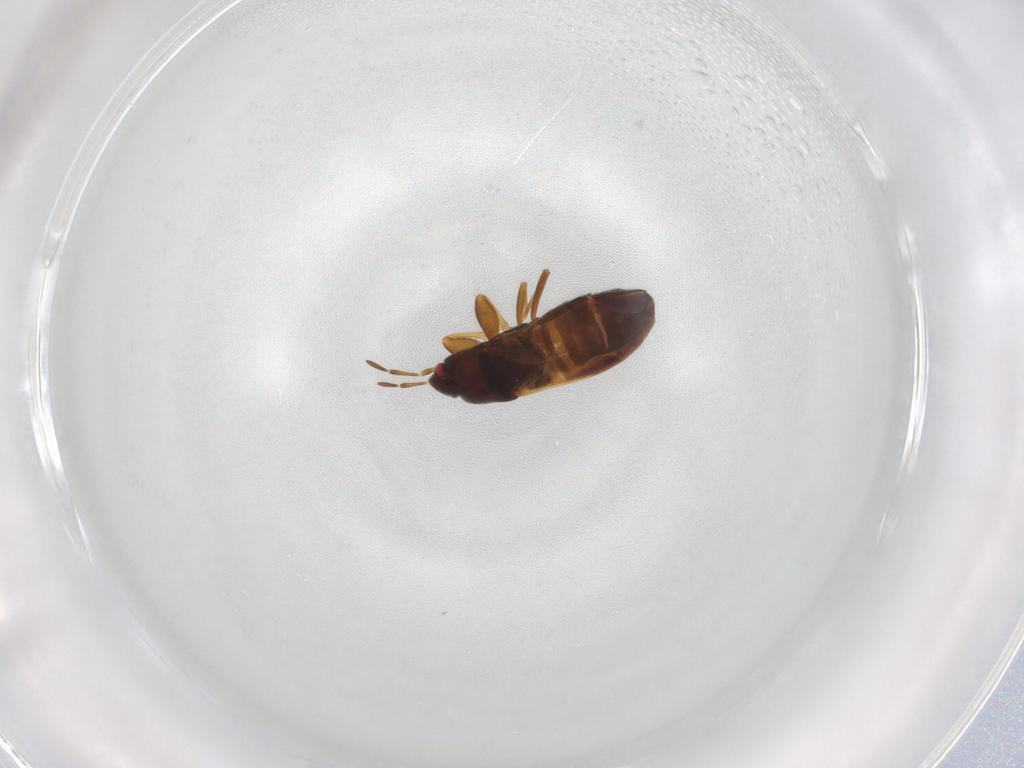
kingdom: Animalia
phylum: Arthropoda
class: Insecta
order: Hemiptera
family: Rhyparochromidae
